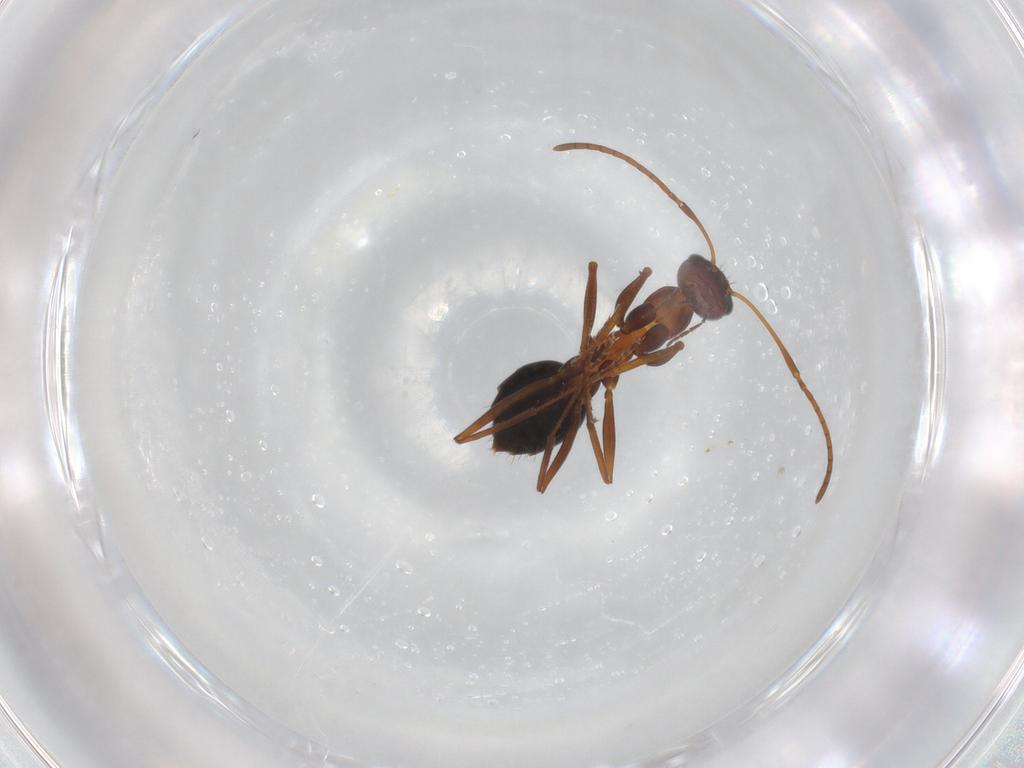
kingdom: Animalia
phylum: Arthropoda
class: Insecta
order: Hymenoptera
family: Formicidae
